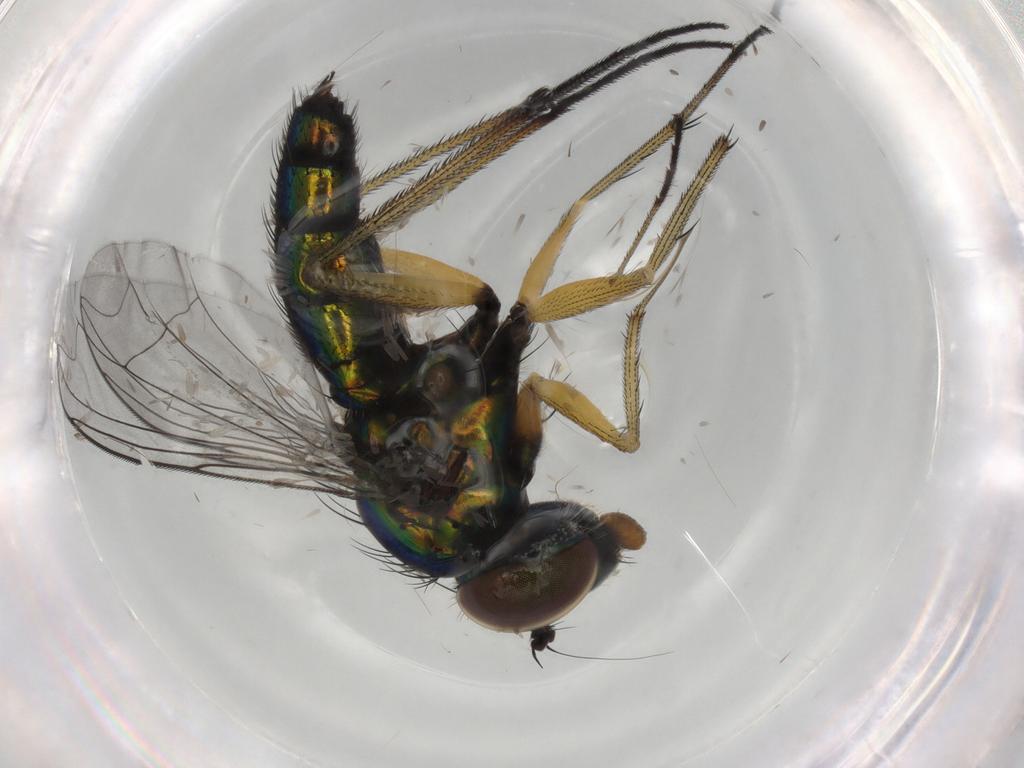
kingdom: Animalia
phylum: Arthropoda
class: Insecta
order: Diptera
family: Dolichopodidae
